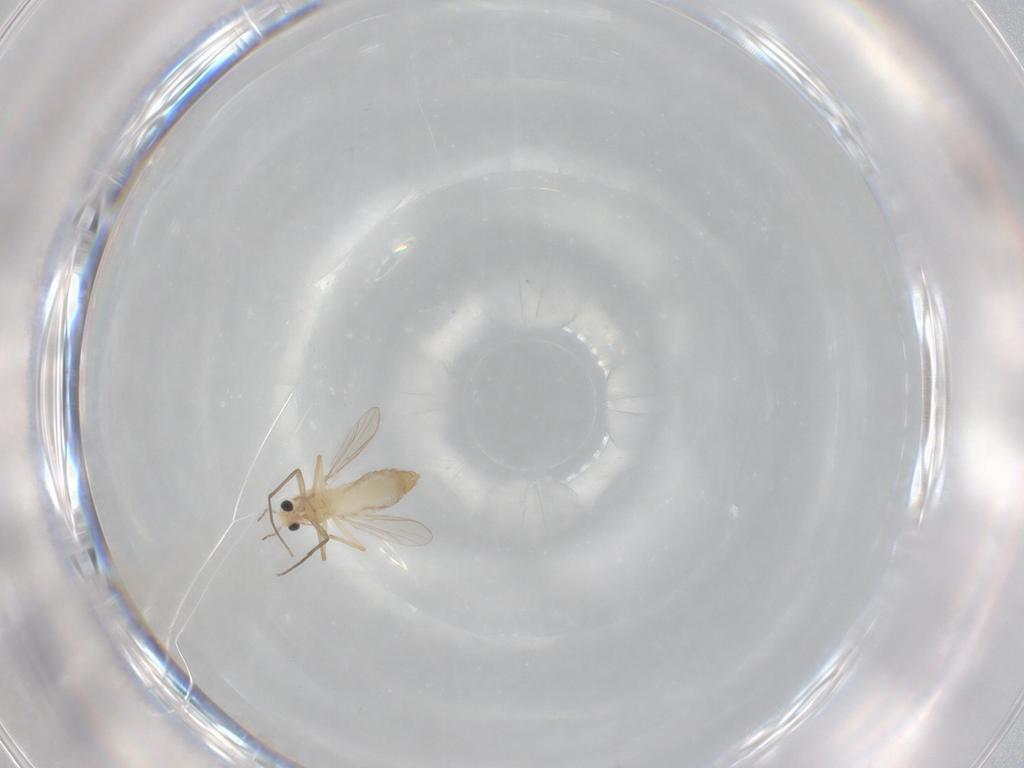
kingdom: Animalia
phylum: Arthropoda
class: Insecta
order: Diptera
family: Chironomidae
